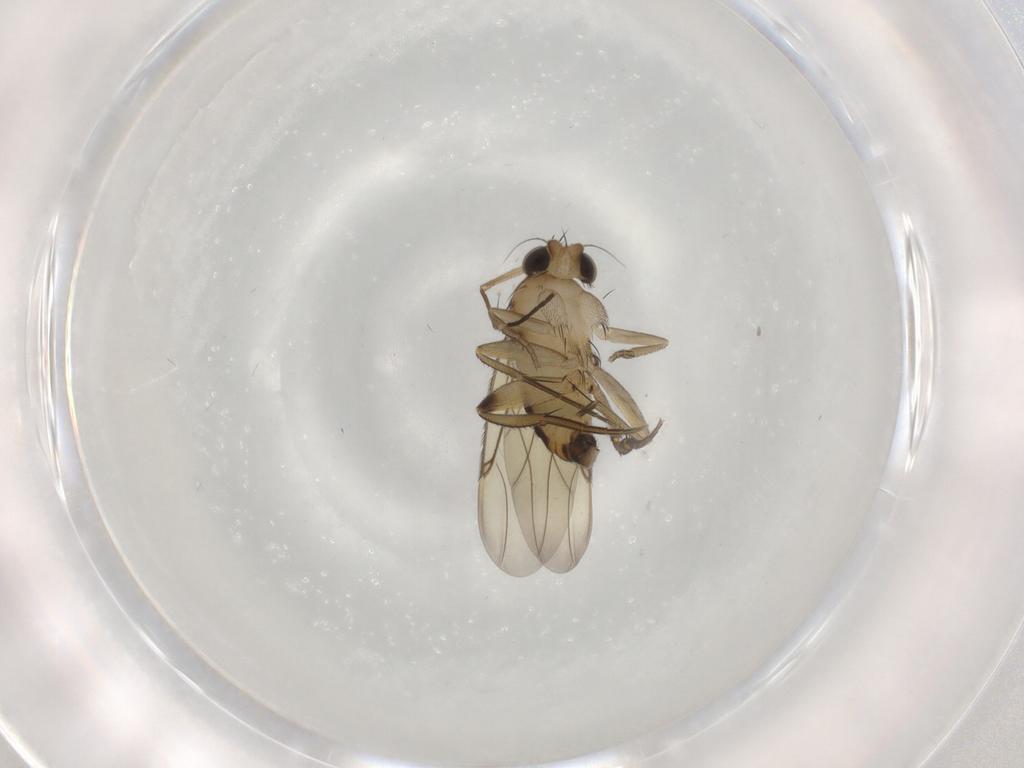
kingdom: Animalia
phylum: Arthropoda
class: Insecta
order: Diptera
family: Phoridae
